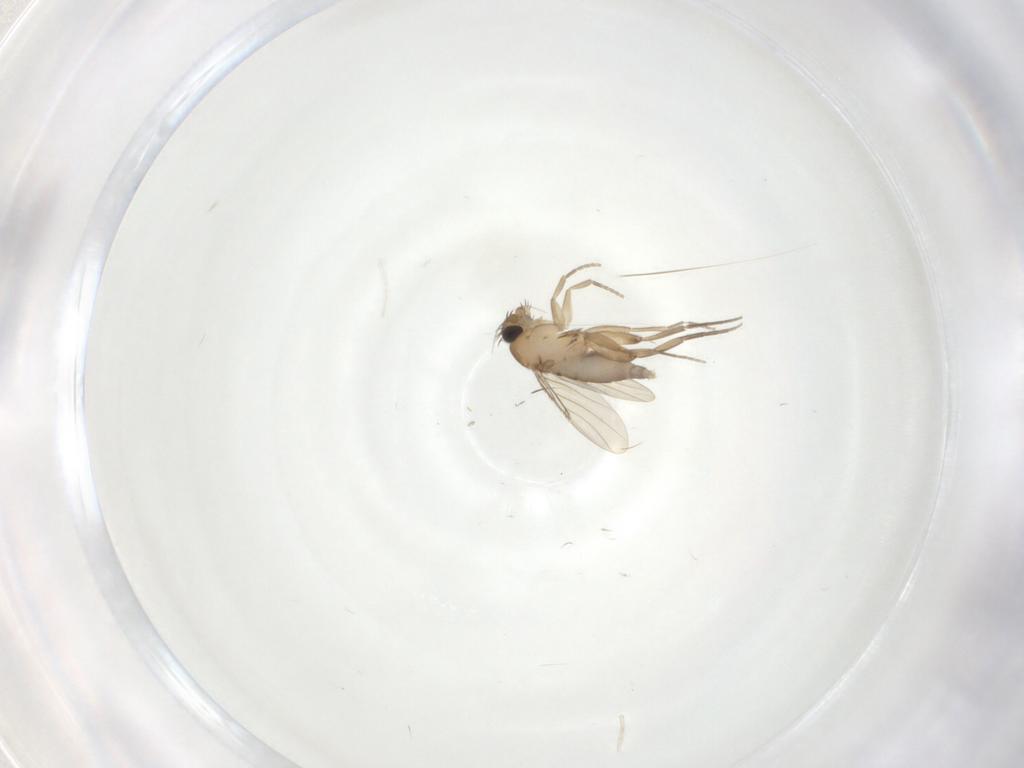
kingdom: Animalia
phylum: Arthropoda
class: Insecta
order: Diptera
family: Phoridae
